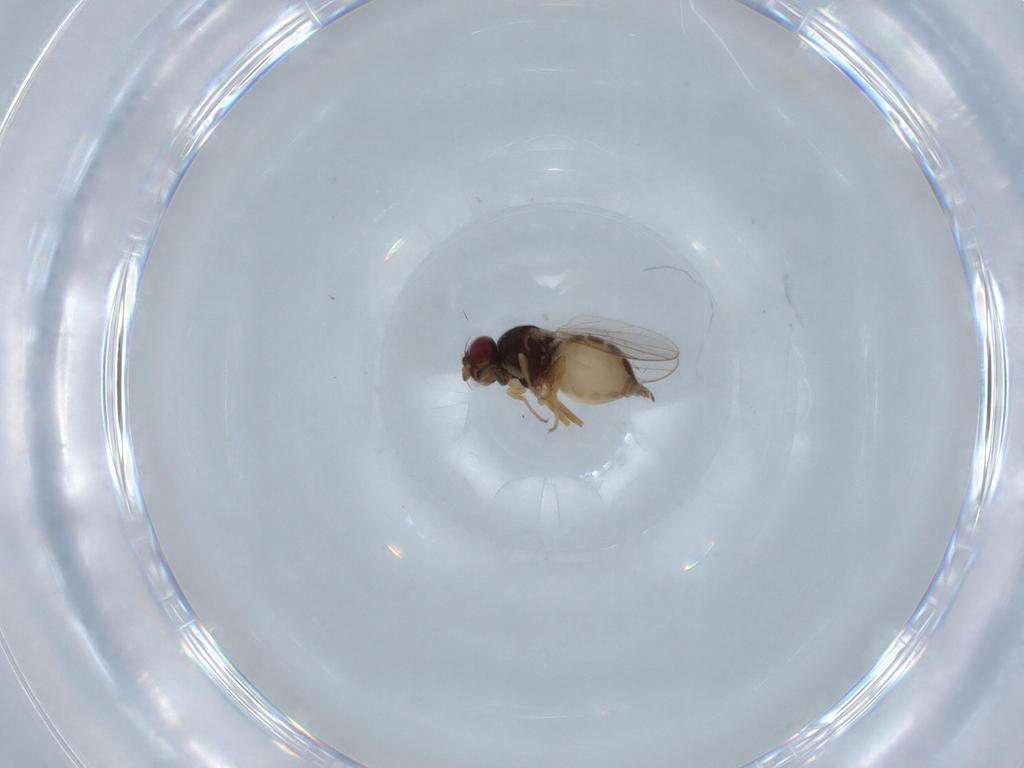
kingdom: Animalia
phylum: Arthropoda
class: Insecta
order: Diptera
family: Chloropidae
